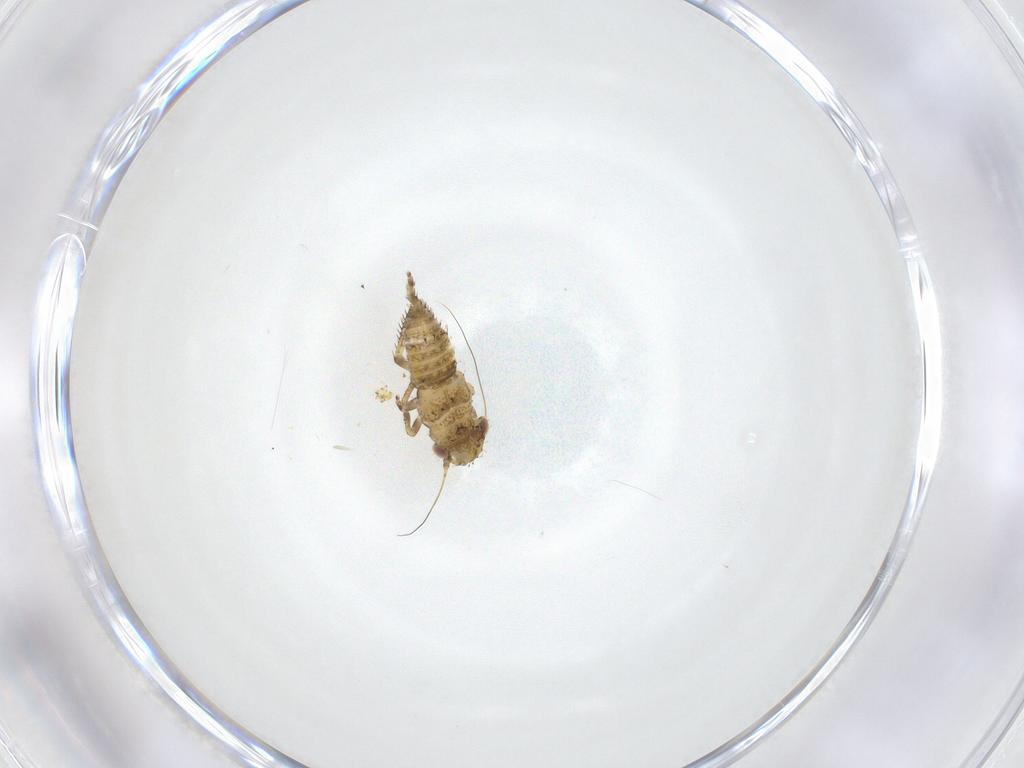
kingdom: Animalia
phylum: Arthropoda
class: Insecta
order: Hemiptera
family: Cicadellidae
